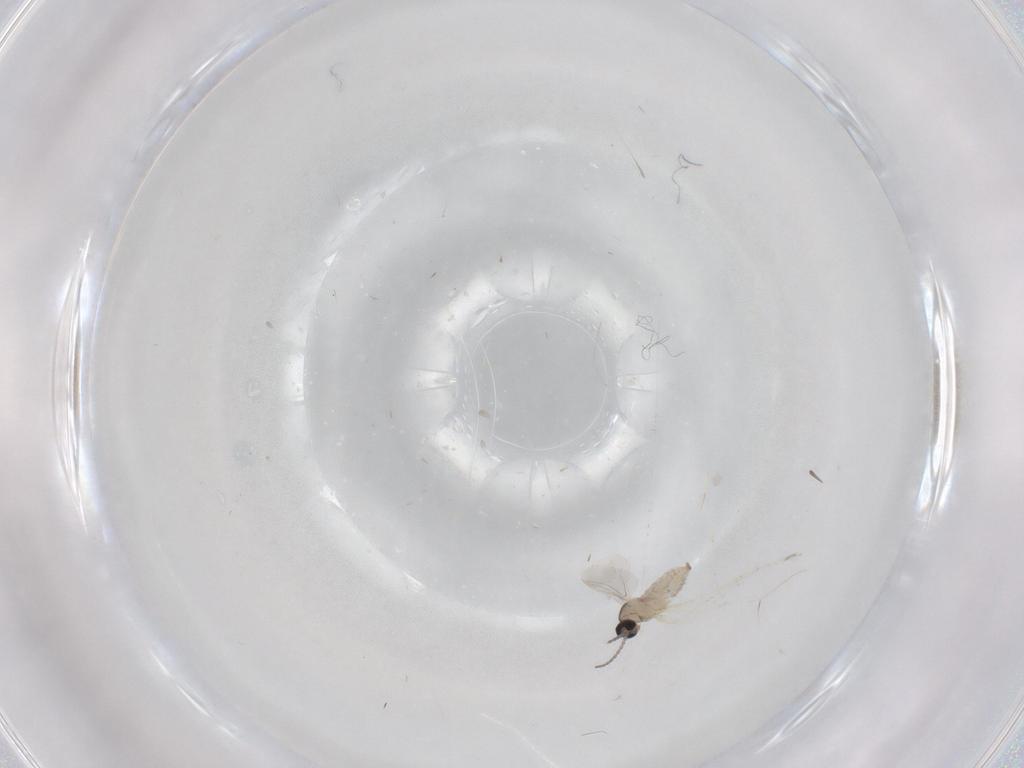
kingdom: Animalia
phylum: Arthropoda
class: Insecta
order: Diptera
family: Cecidomyiidae
